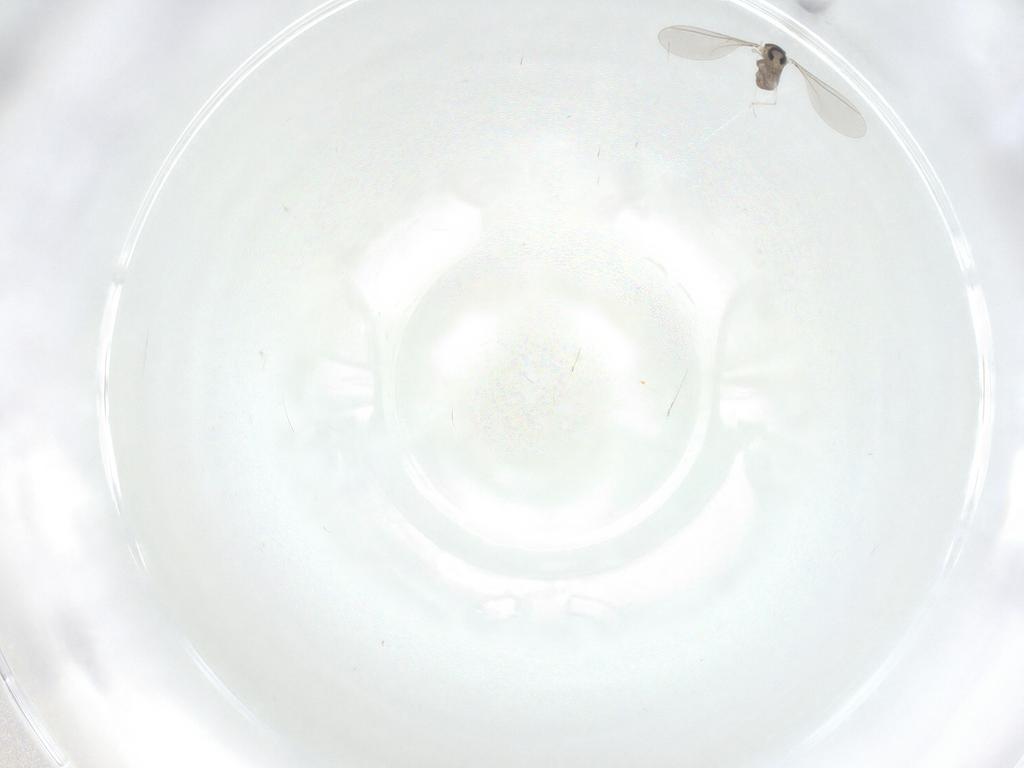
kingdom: Animalia
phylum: Arthropoda
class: Insecta
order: Diptera
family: Cecidomyiidae
